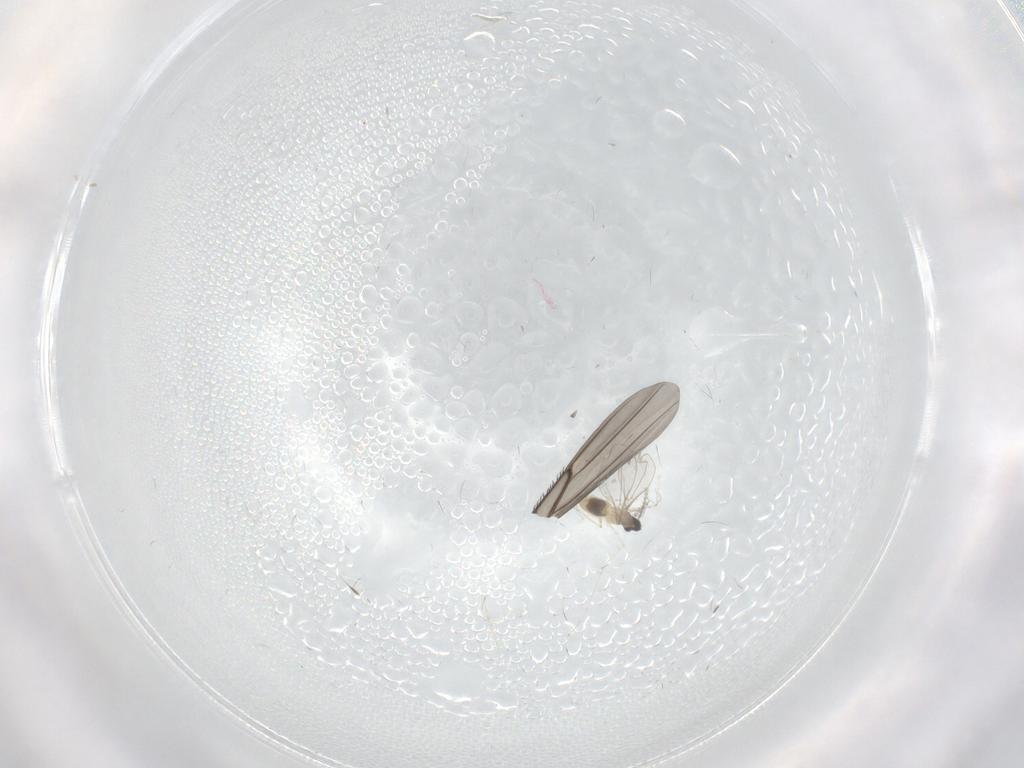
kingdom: Animalia
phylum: Arthropoda
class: Insecta
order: Diptera
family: Cecidomyiidae
